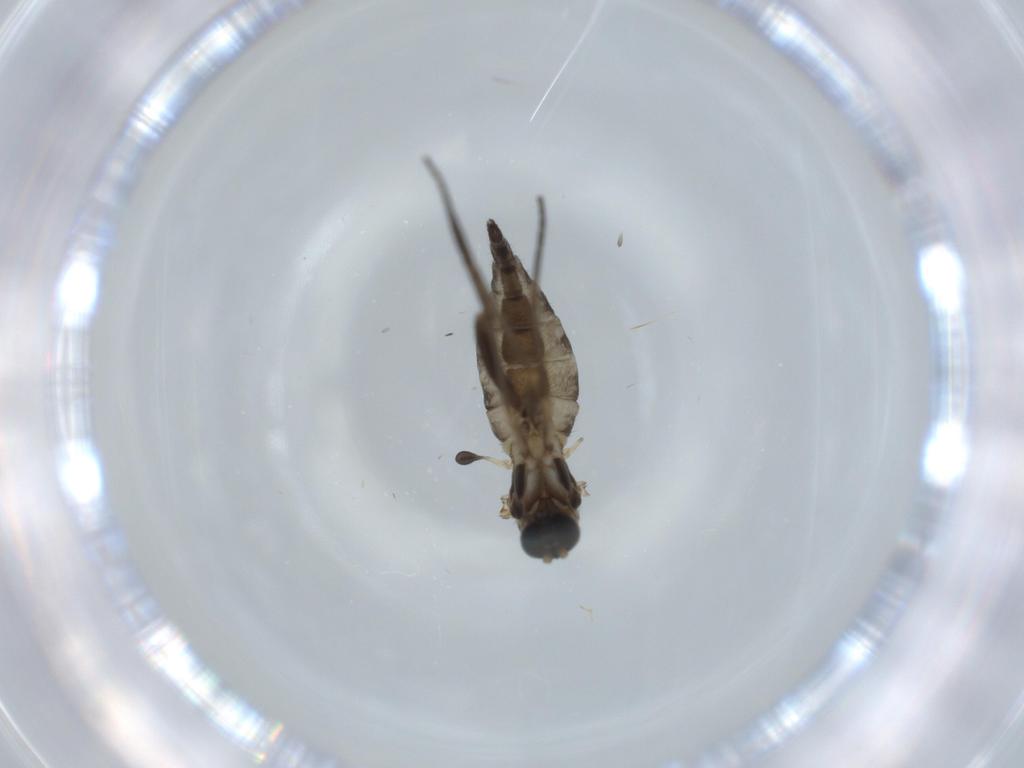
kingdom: Animalia
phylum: Arthropoda
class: Insecta
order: Diptera
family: Sciaridae
